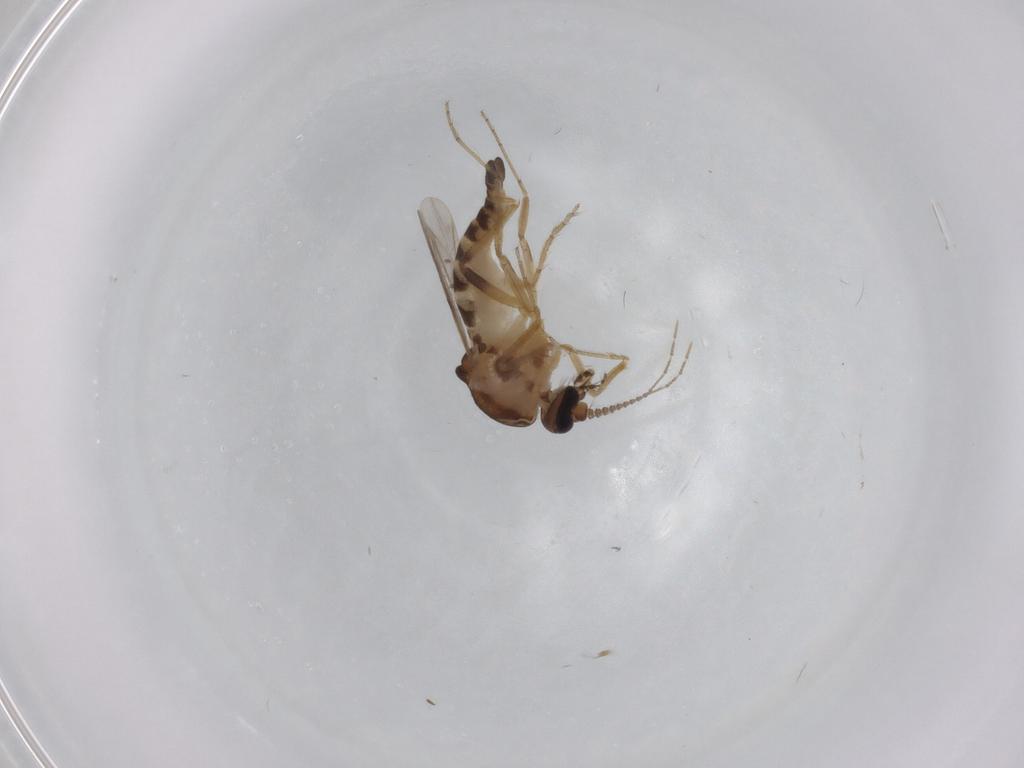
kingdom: Animalia
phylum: Arthropoda
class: Insecta
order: Diptera
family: Ceratopogonidae
